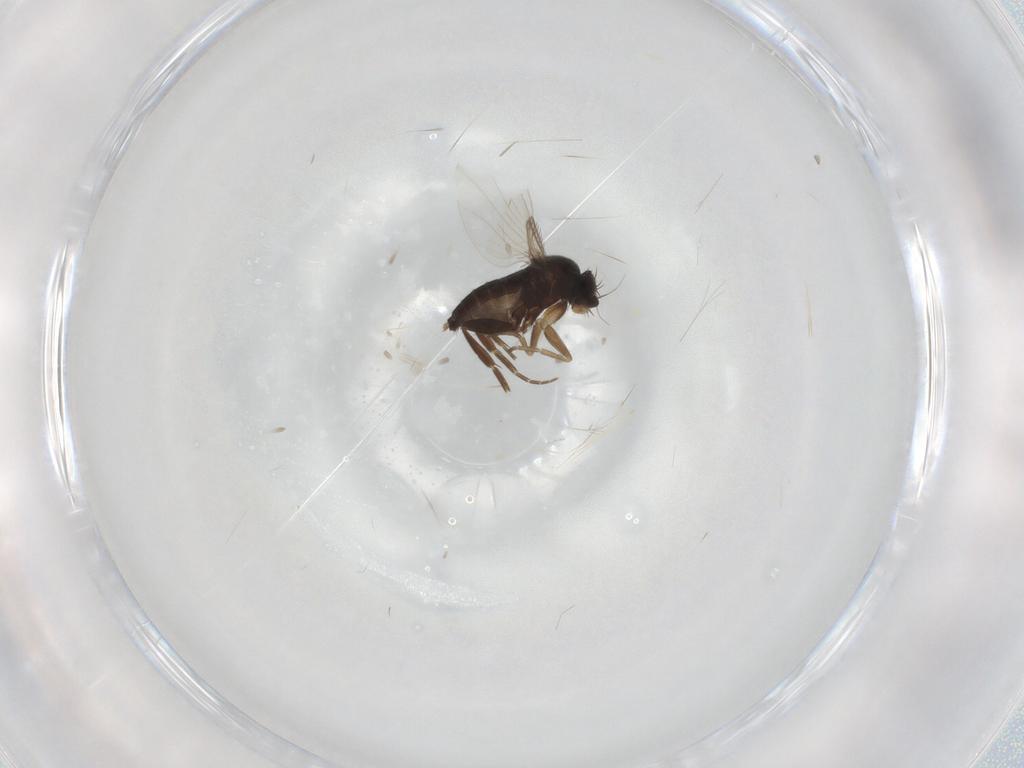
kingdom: Animalia
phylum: Arthropoda
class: Insecta
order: Diptera
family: Phoridae
